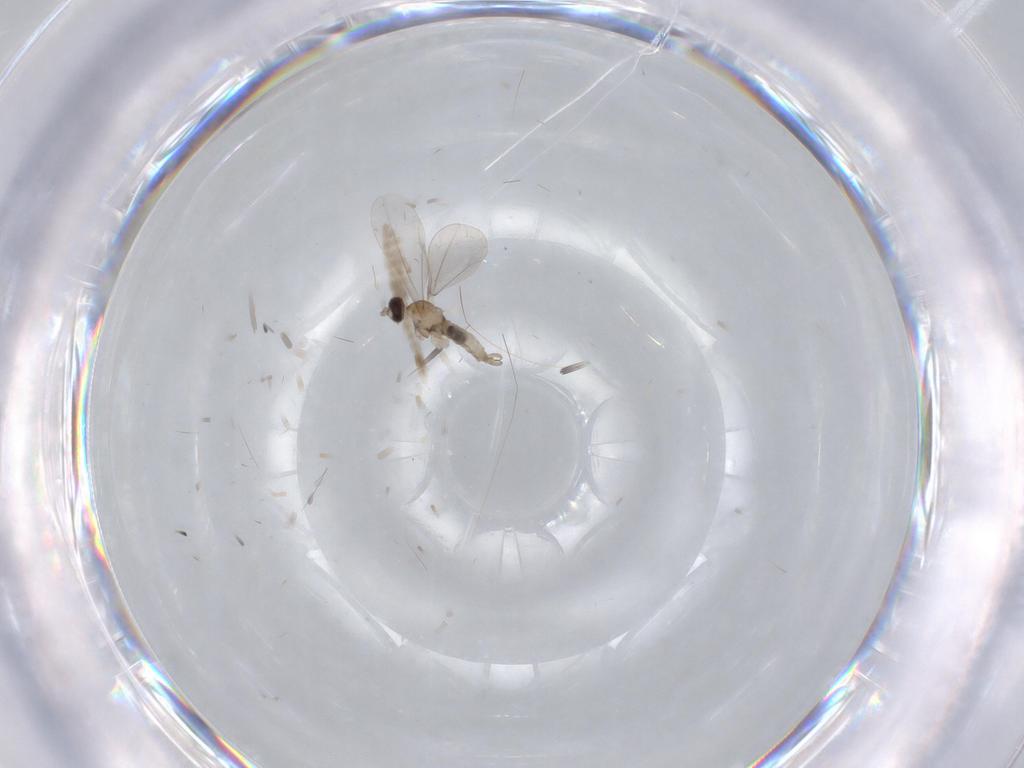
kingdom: Animalia
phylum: Arthropoda
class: Insecta
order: Diptera
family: Cecidomyiidae
